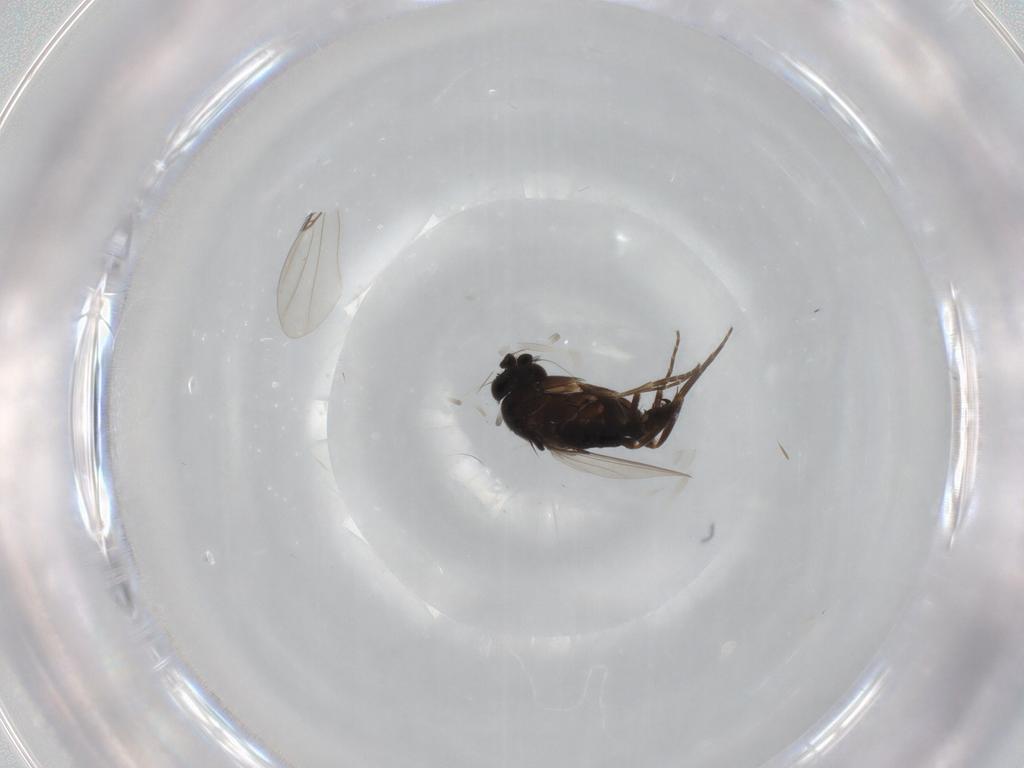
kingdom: Animalia
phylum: Arthropoda
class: Insecta
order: Diptera
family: Phoridae
